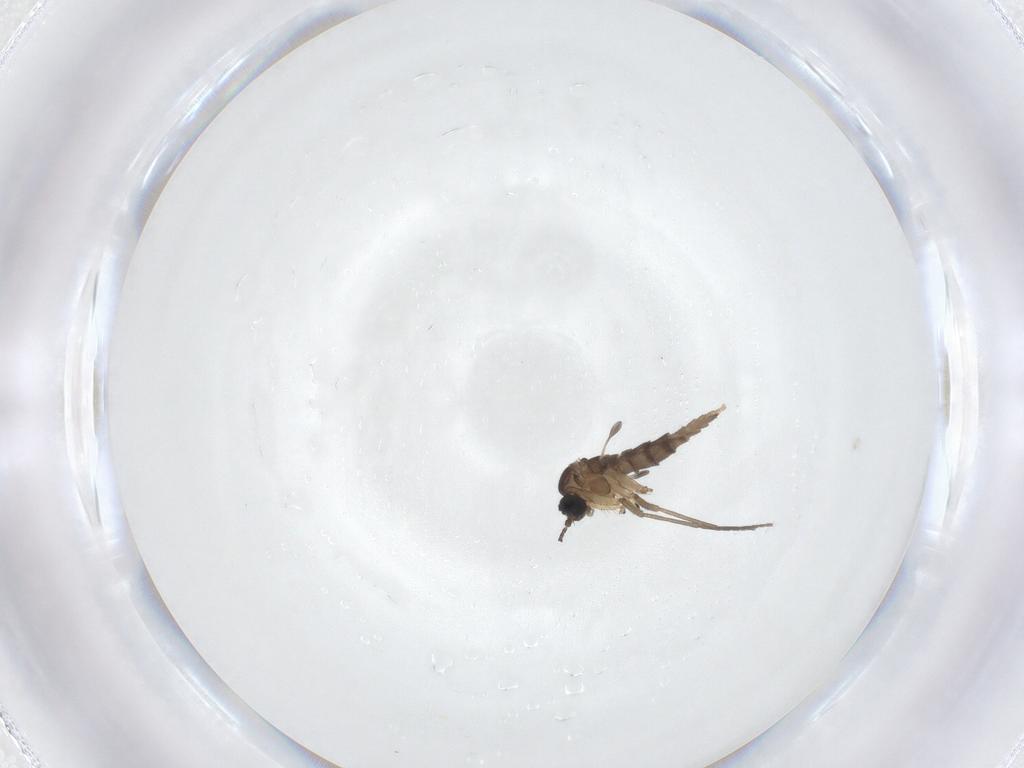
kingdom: Animalia
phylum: Arthropoda
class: Insecta
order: Diptera
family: Sciaridae
